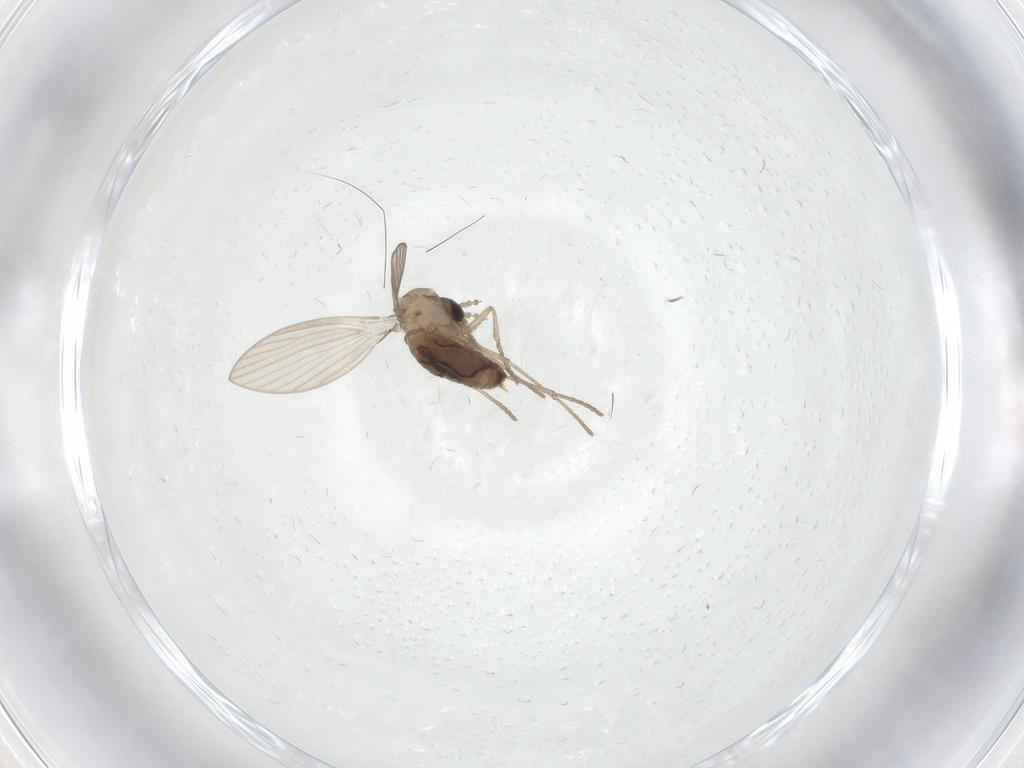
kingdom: Animalia
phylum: Arthropoda
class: Insecta
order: Diptera
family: Psychodidae
